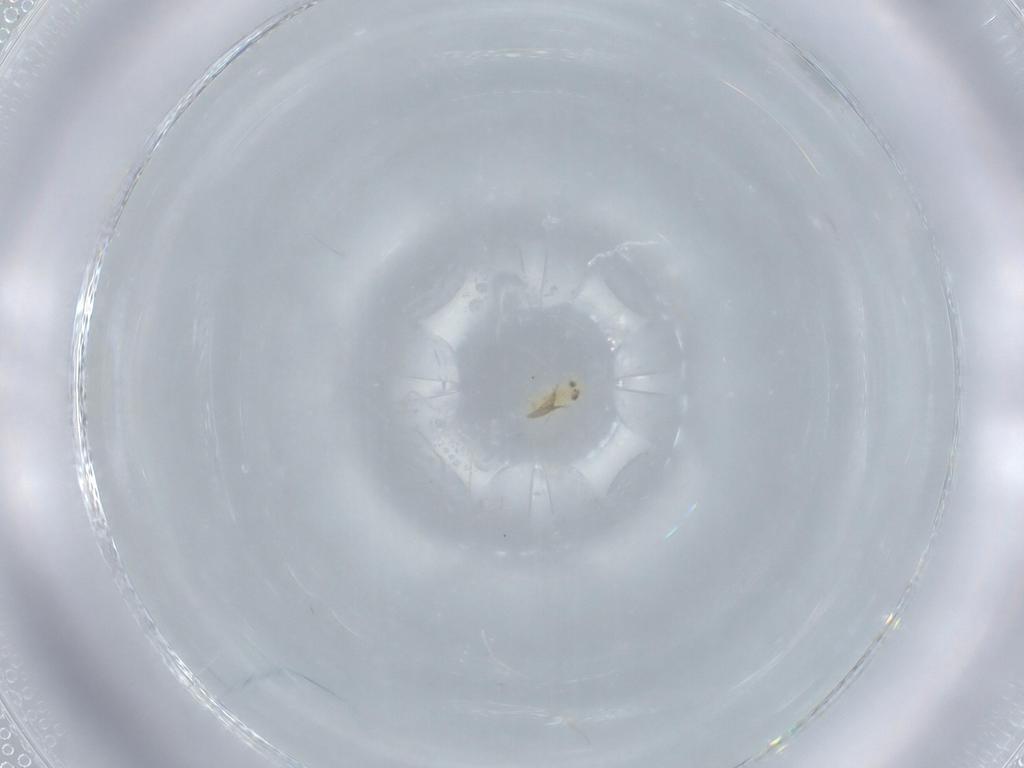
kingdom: Animalia
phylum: Arthropoda
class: Insecta
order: Hymenoptera
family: Aphelinidae
